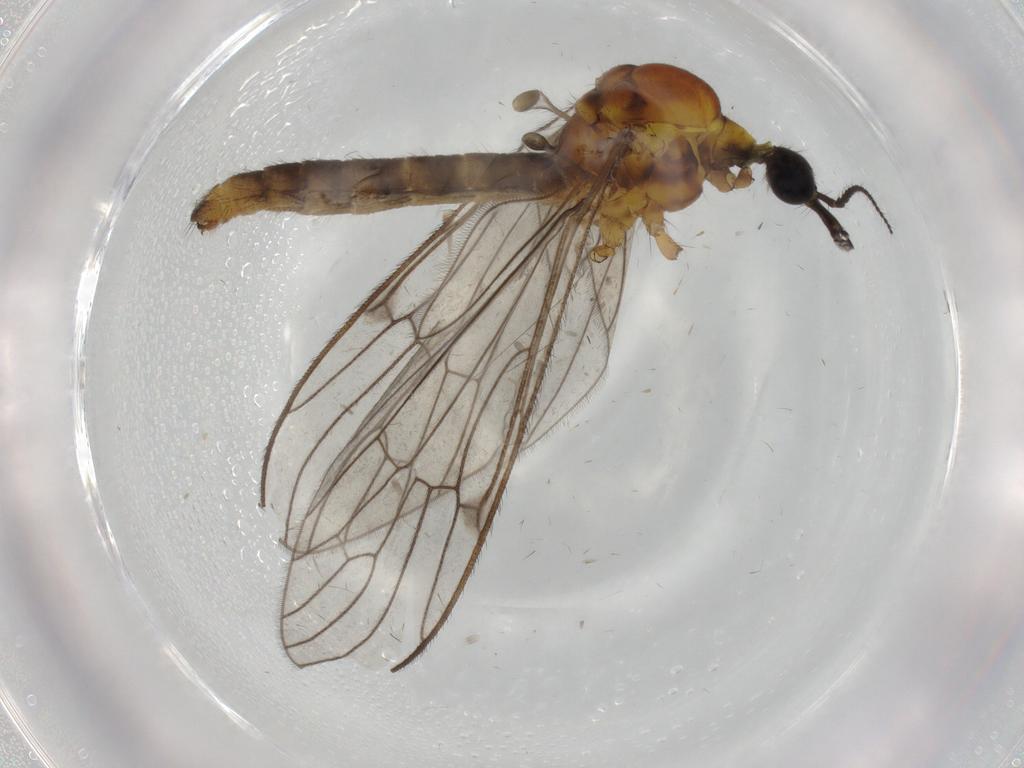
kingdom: Animalia
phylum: Arthropoda
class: Insecta
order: Diptera
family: Limoniidae
